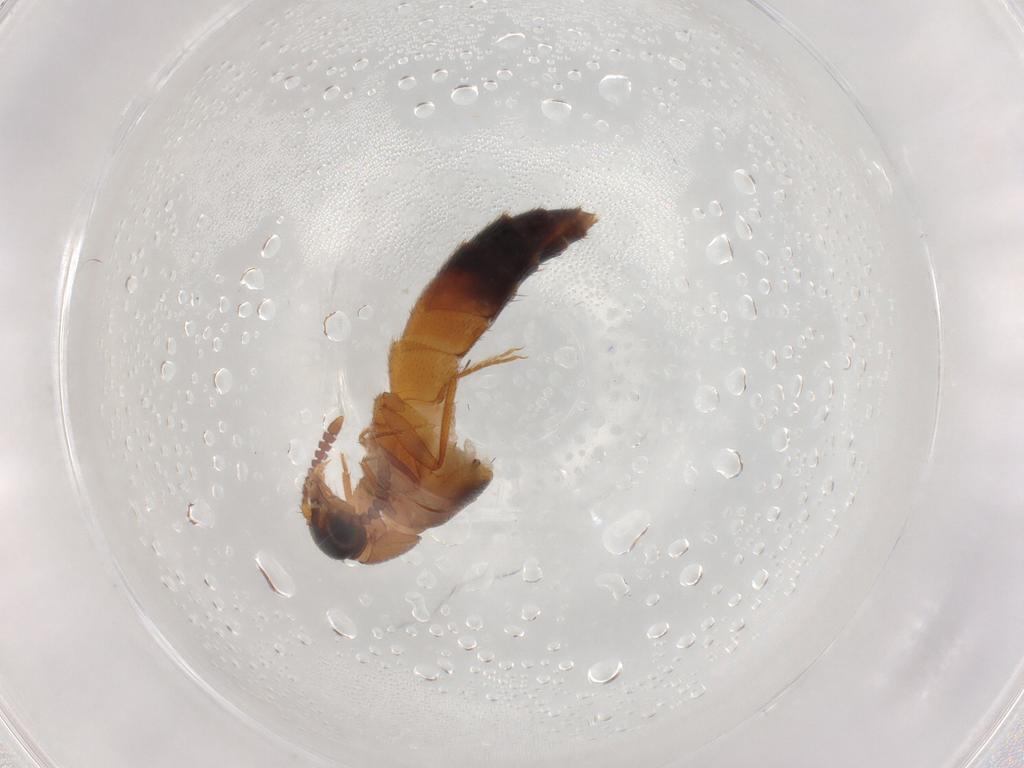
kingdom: Animalia
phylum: Arthropoda
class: Insecta
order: Coleoptera
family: Staphylinidae
